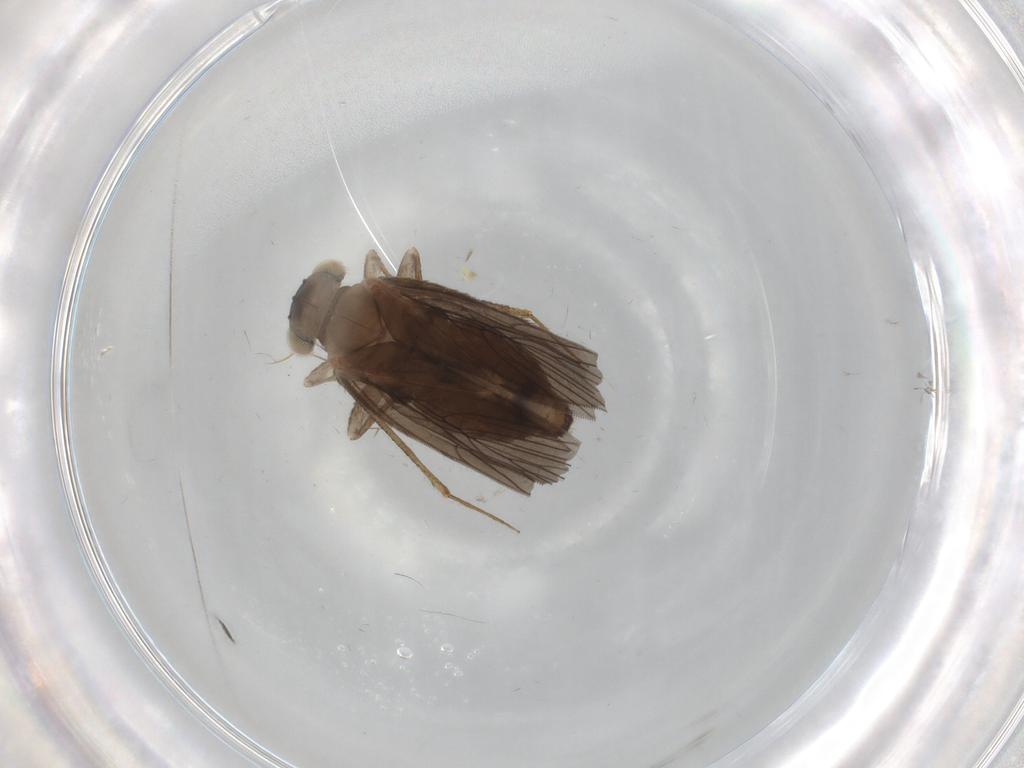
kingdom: Animalia
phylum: Arthropoda
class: Insecta
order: Psocodea
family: Lepidopsocidae
